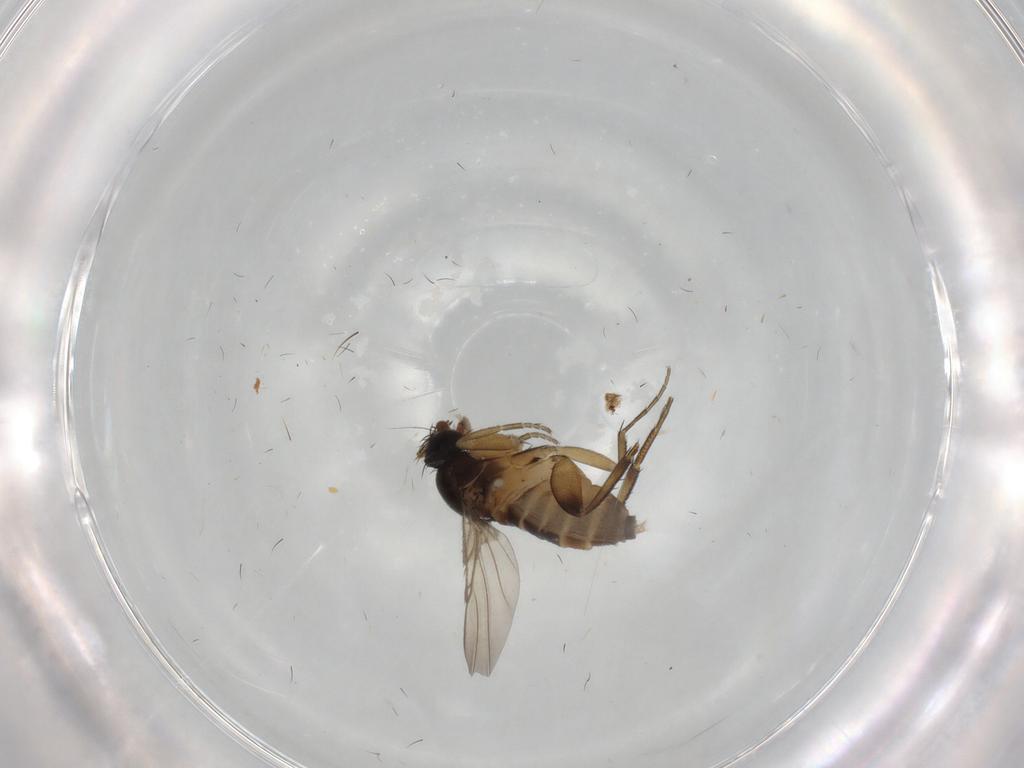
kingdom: Animalia
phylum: Arthropoda
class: Insecta
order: Diptera
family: Phoridae
